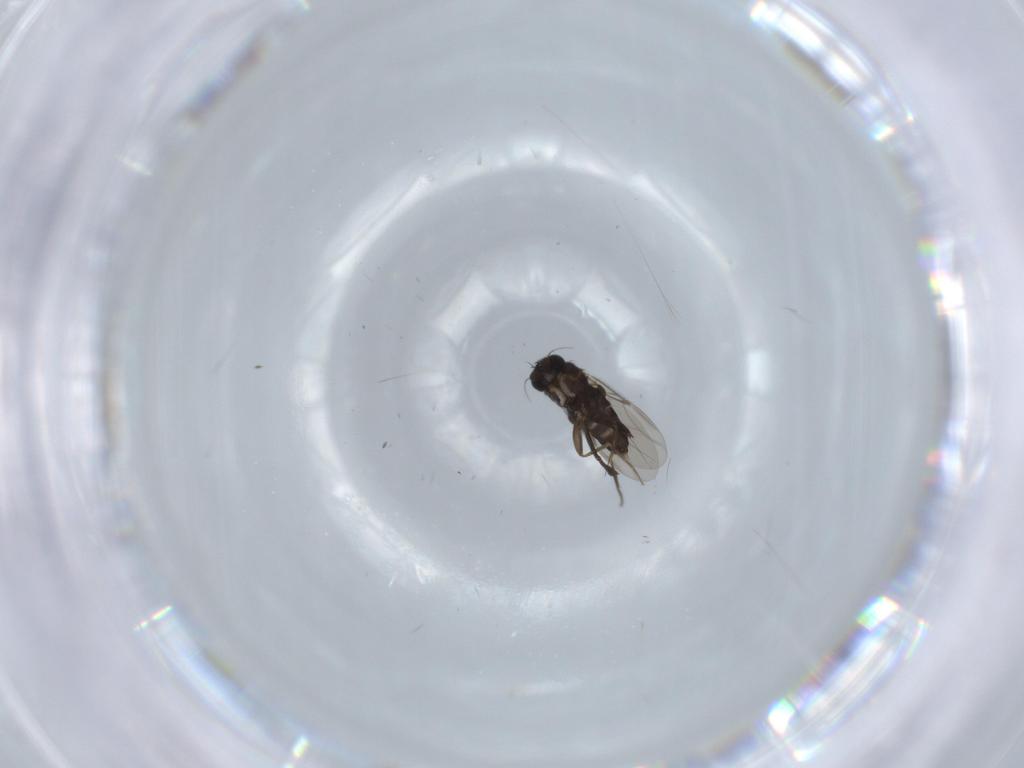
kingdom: Animalia
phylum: Arthropoda
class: Insecta
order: Diptera
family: Phoridae
